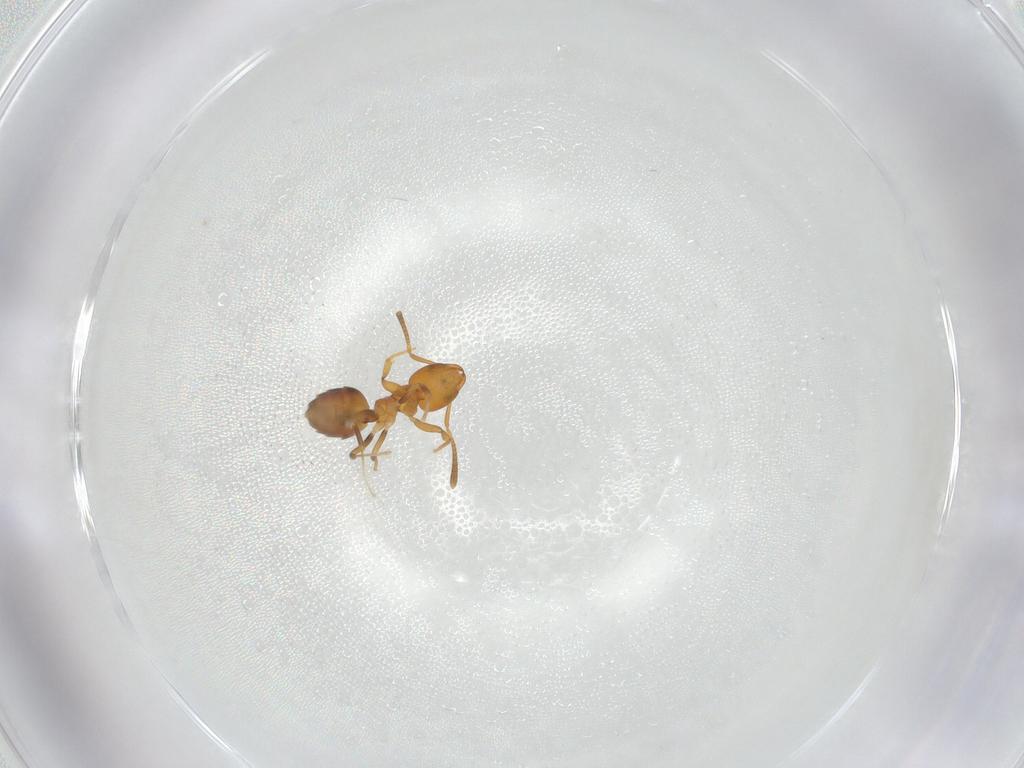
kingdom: Animalia
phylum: Arthropoda
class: Insecta
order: Hymenoptera
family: Formicidae
